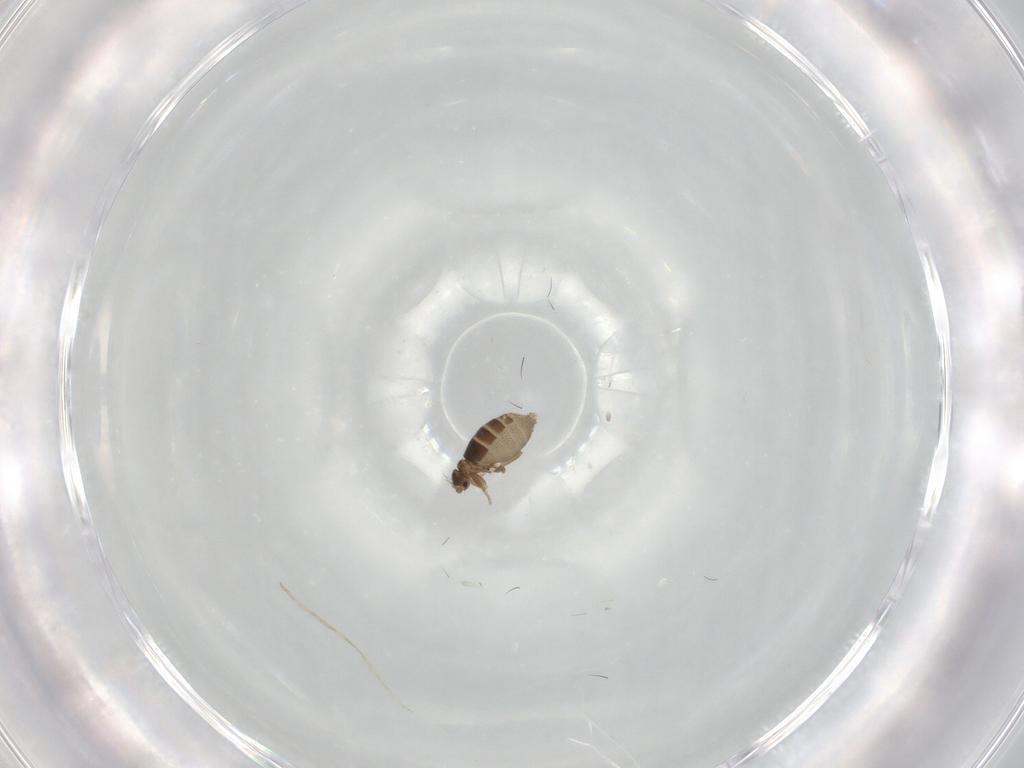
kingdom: Animalia
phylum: Arthropoda
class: Insecta
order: Diptera
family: Phoridae
